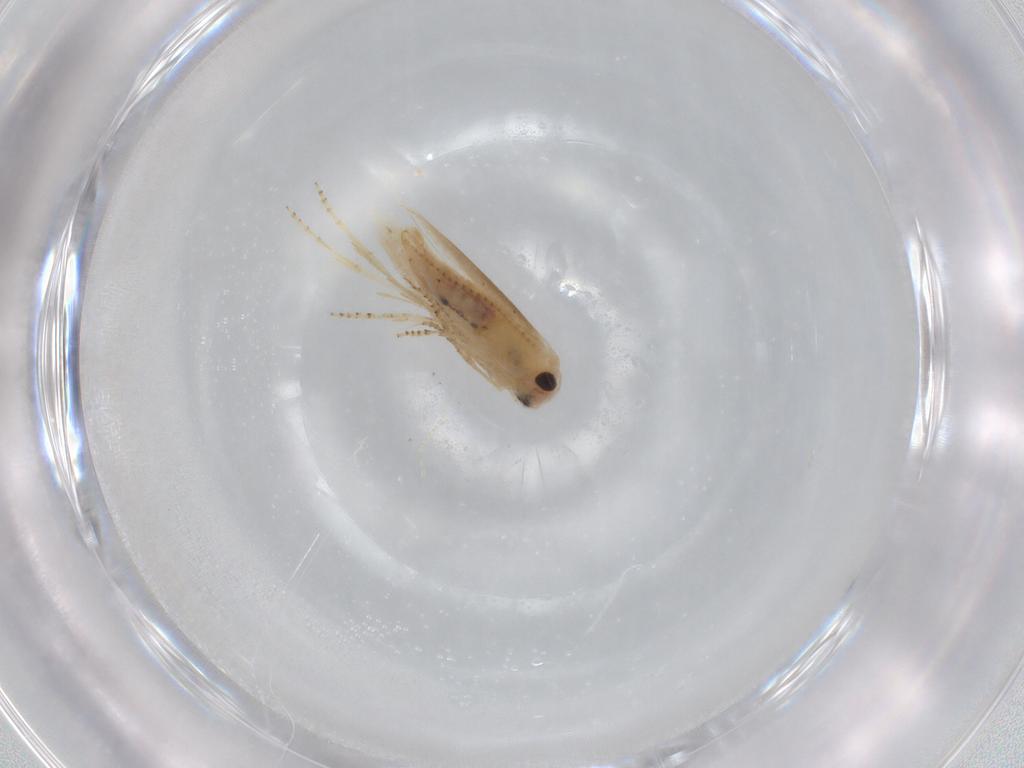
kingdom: Animalia
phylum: Arthropoda
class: Insecta
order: Lepidoptera
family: Bucculatricidae
